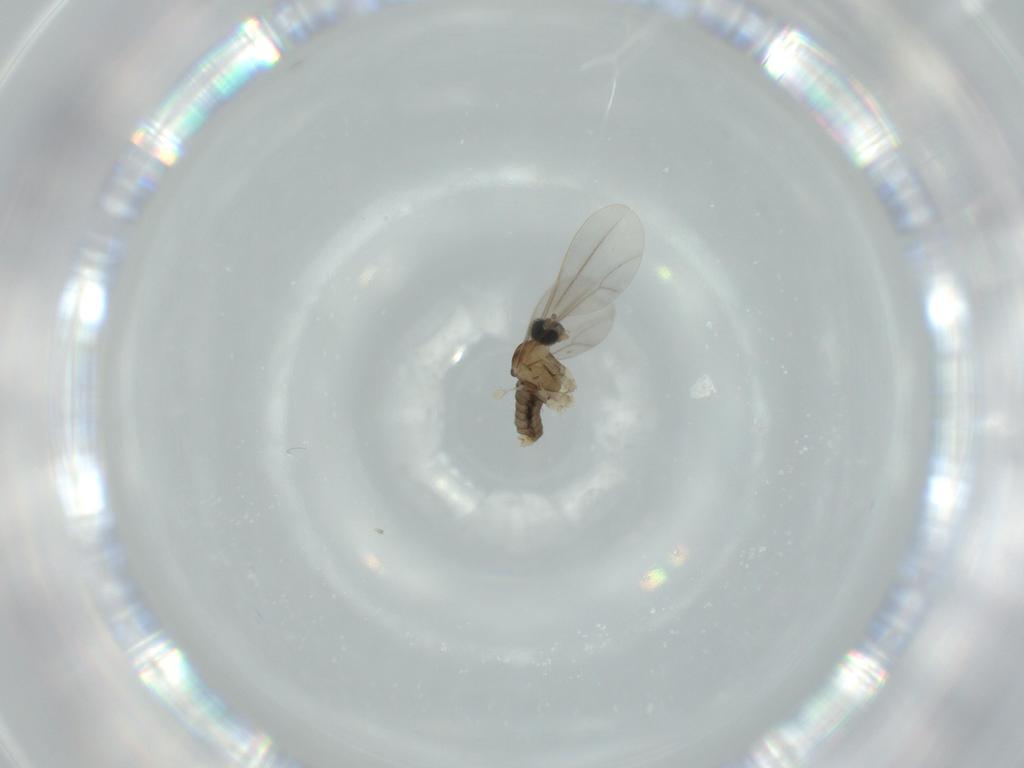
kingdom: Animalia
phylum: Arthropoda
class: Insecta
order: Diptera
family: Cecidomyiidae
